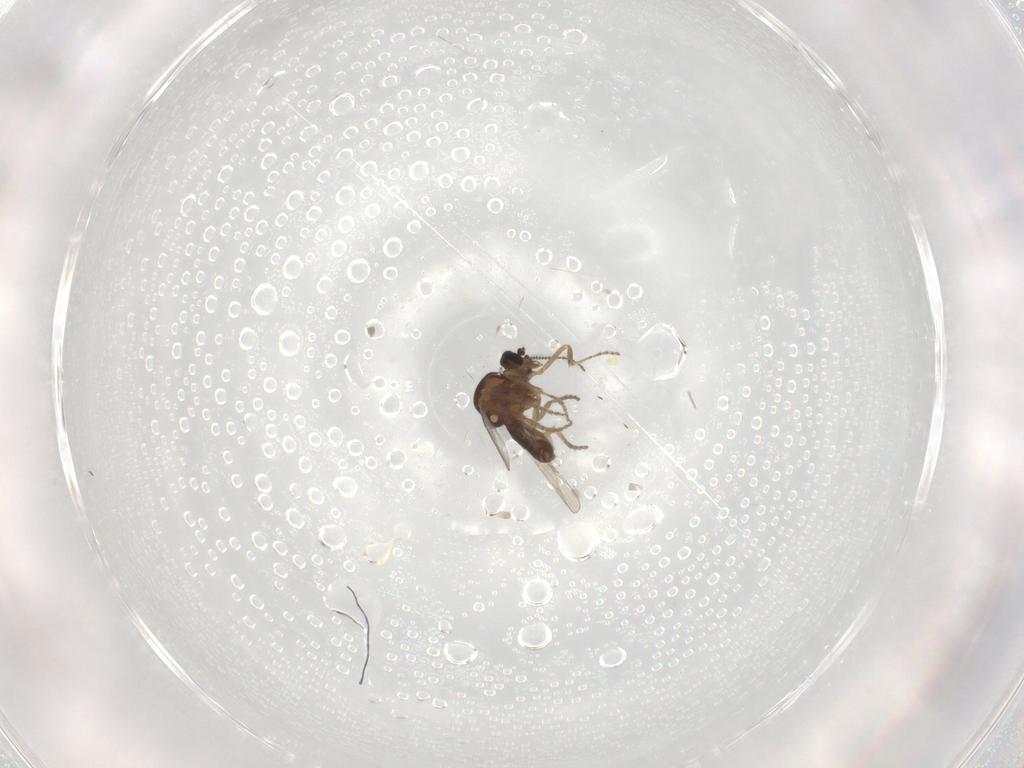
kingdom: Animalia
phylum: Arthropoda
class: Insecta
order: Diptera
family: Ceratopogonidae
